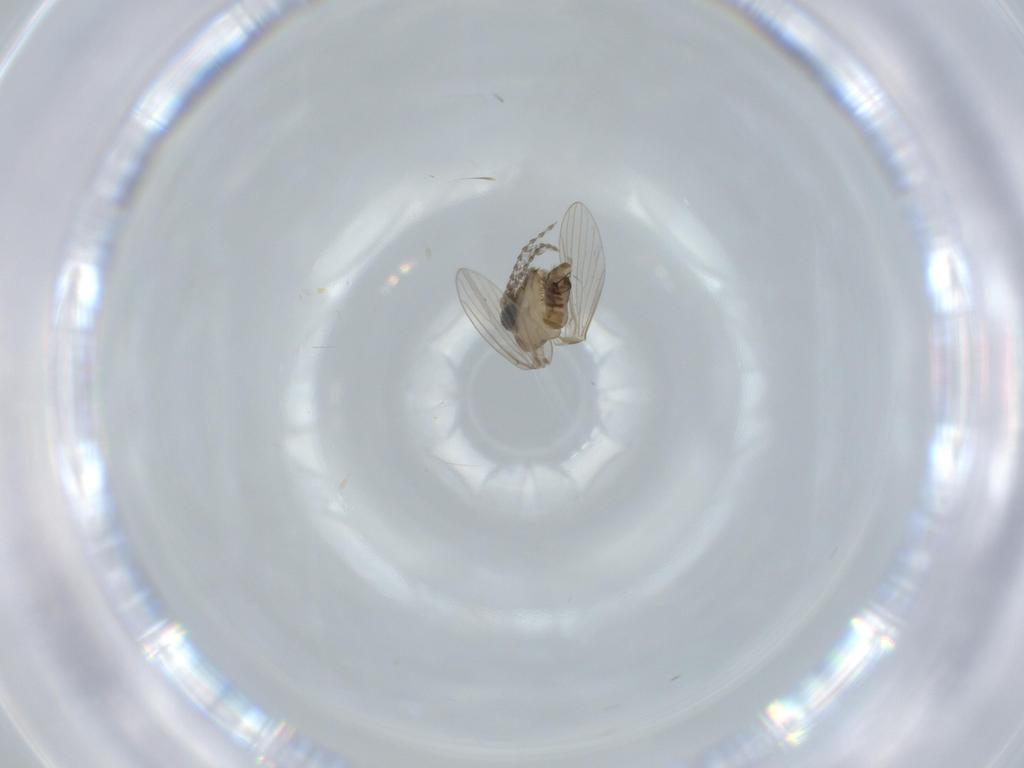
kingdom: Animalia
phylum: Arthropoda
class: Insecta
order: Diptera
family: Psychodidae
